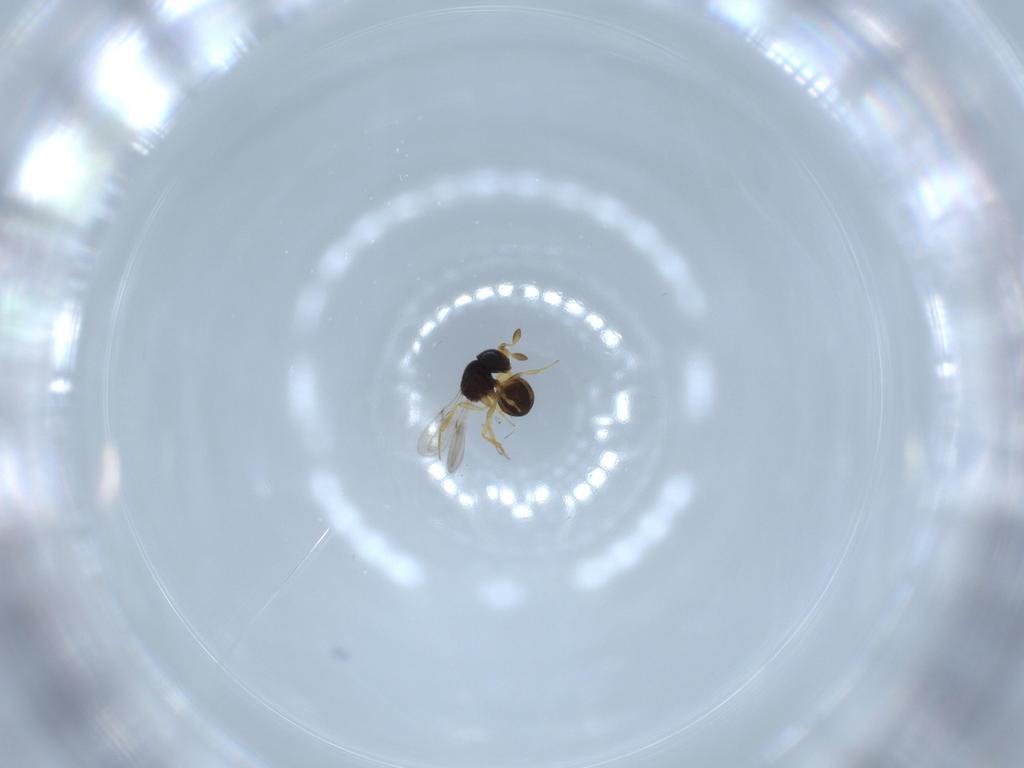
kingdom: Animalia
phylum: Arthropoda
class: Insecta
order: Hymenoptera
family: Scelionidae
